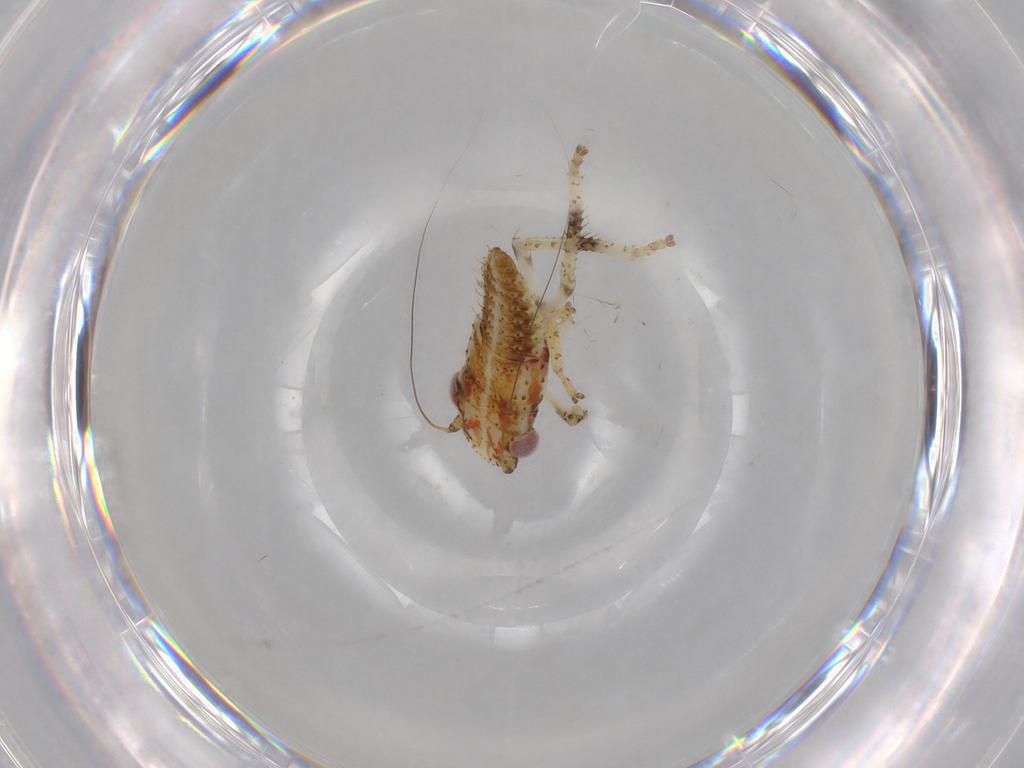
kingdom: Animalia
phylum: Arthropoda
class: Insecta
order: Hemiptera
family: Cicadellidae
